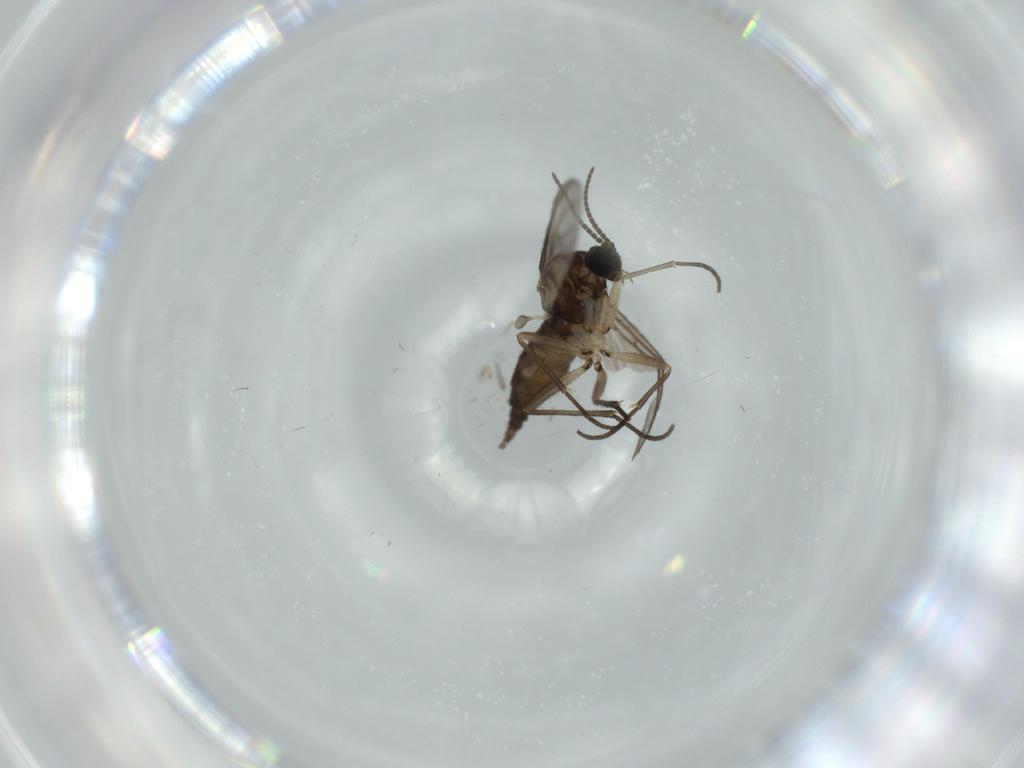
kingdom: Animalia
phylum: Arthropoda
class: Insecta
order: Diptera
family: Sciaridae
